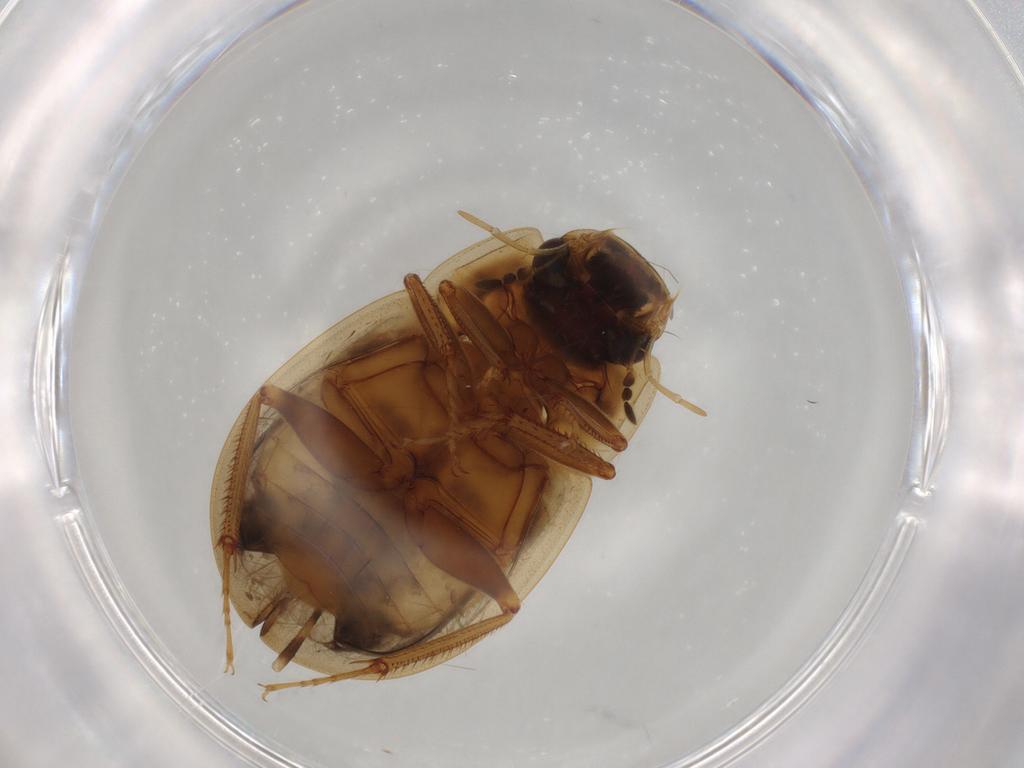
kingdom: Animalia
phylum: Arthropoda
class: Insecta
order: Coleoptera
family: Hydrophilidae
